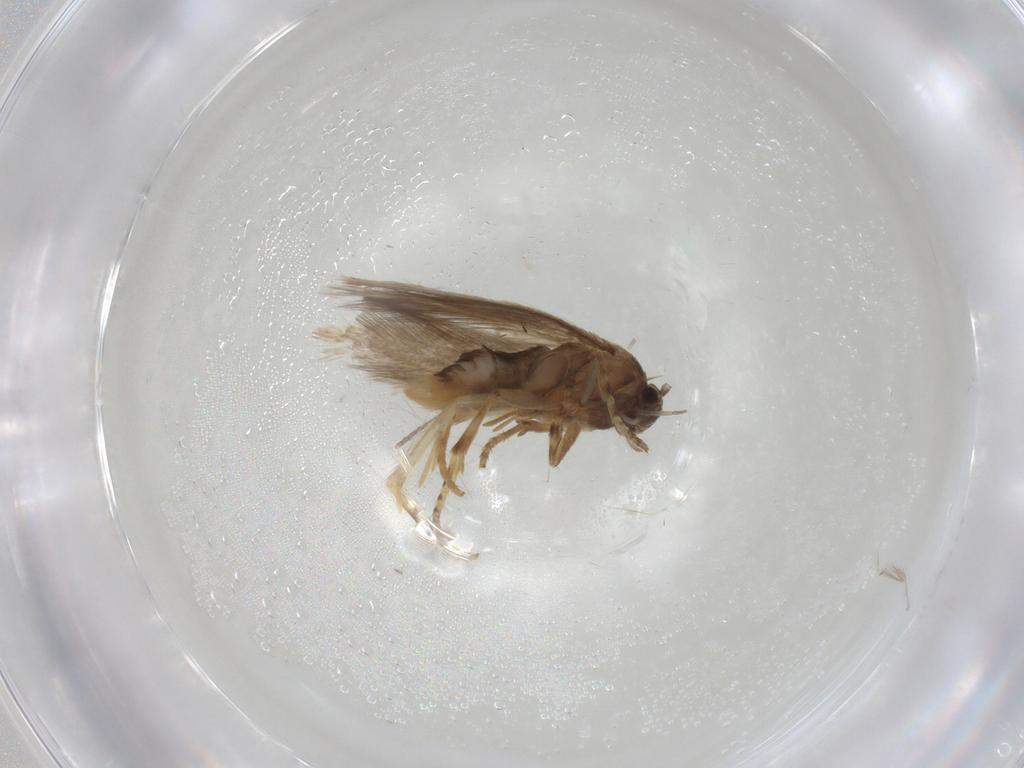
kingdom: Animalia
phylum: Arthropoda
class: Insecta
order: Lepidoptera
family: Elachistidae
